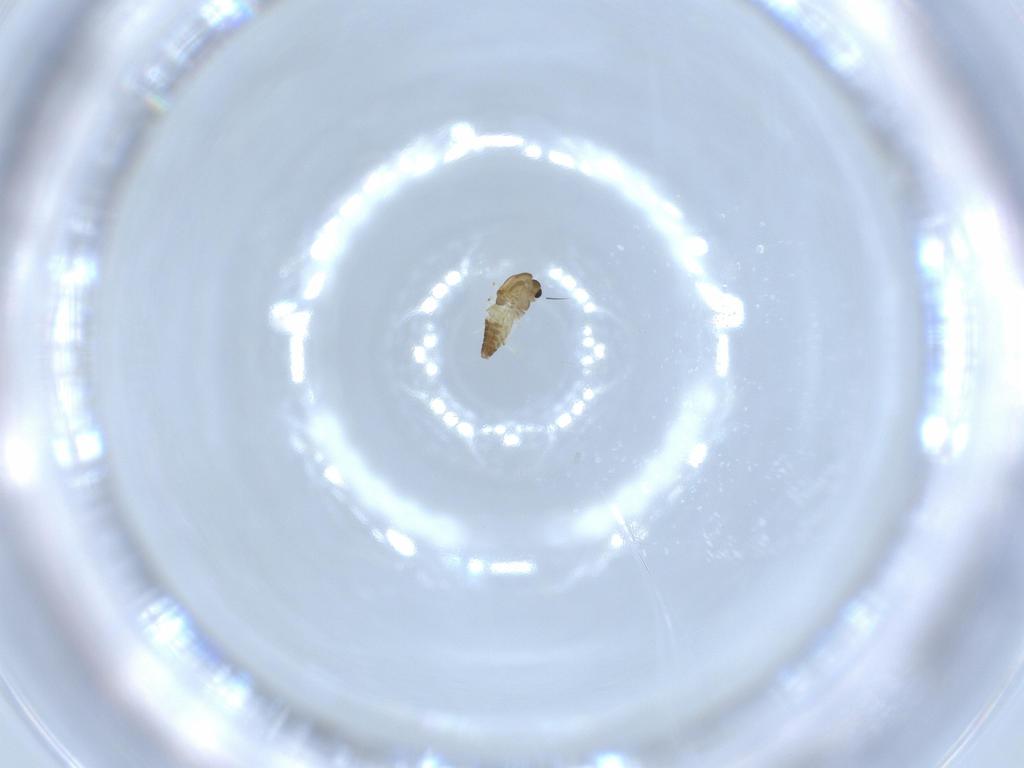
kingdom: Animalia
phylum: Arthropoda
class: Insecta
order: Diptera
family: Chironomidae
